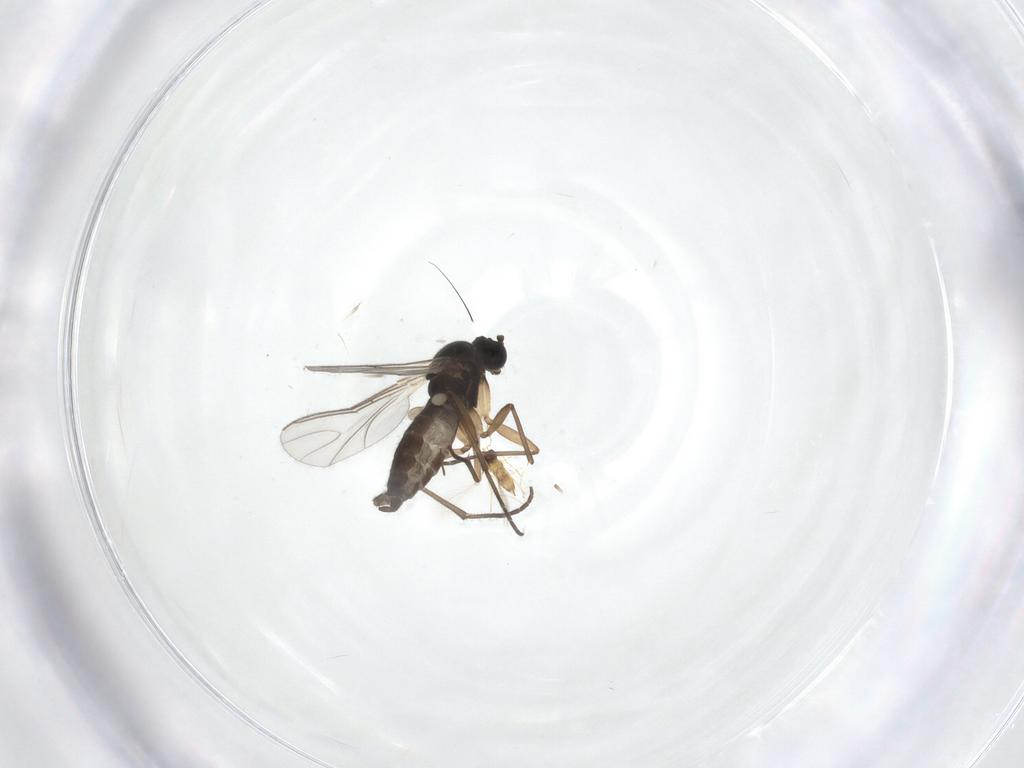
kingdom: Animalia
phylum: Arthropoda
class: Insecta
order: Diptera
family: Sciaridae
